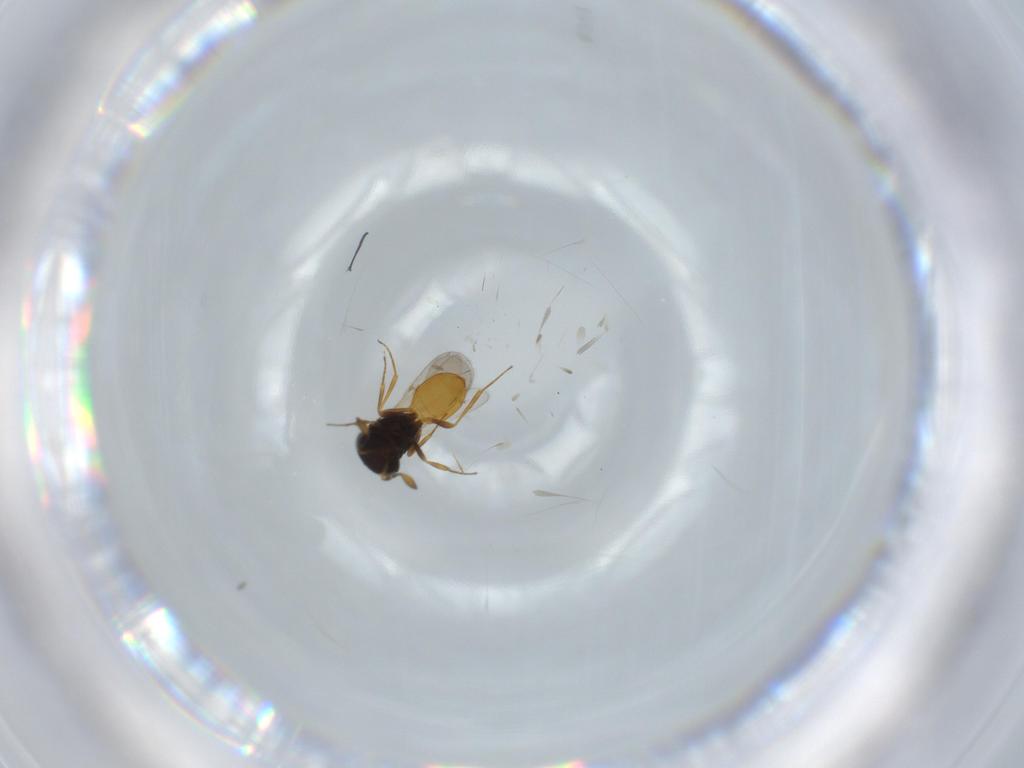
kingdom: Animalia
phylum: Arthropoda
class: Insecta
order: Hymenoptera
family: Scelionidae
